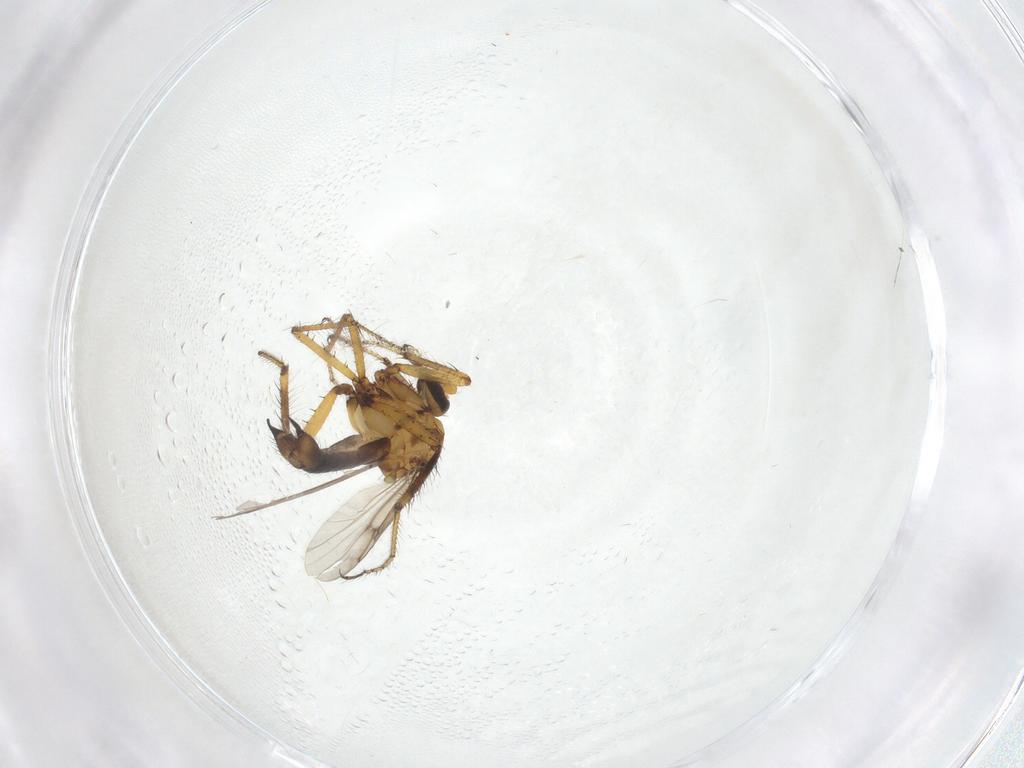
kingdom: Animalia
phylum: Arthropoda
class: Insecta
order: Diptera
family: Ceratopogonidae
